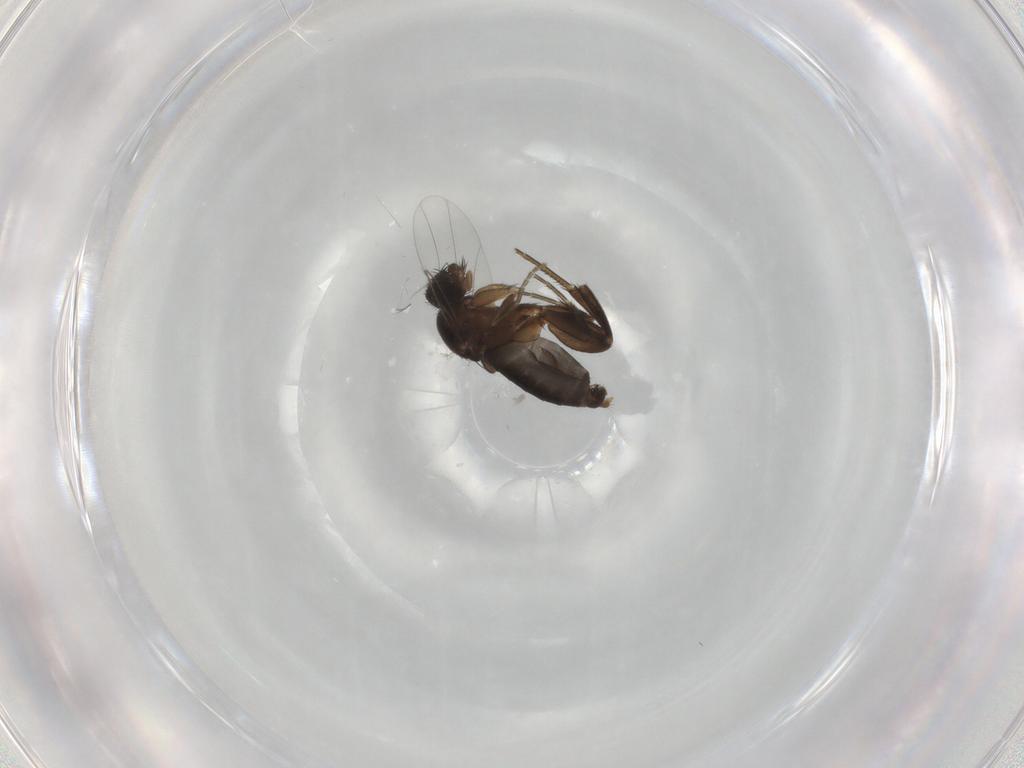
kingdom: Animalia
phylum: Arthropoda
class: Insecta
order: Diptera
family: Phoridae
